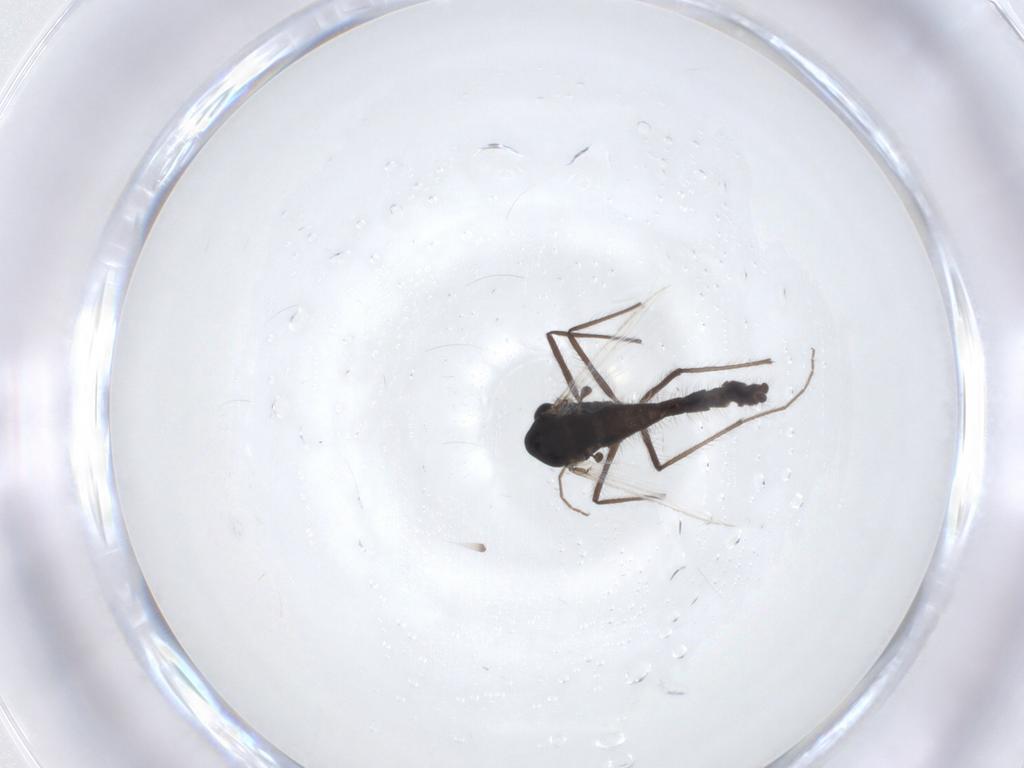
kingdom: Animalia
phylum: Arthropoda
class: Insecta
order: Diptera
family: Chironomidae
